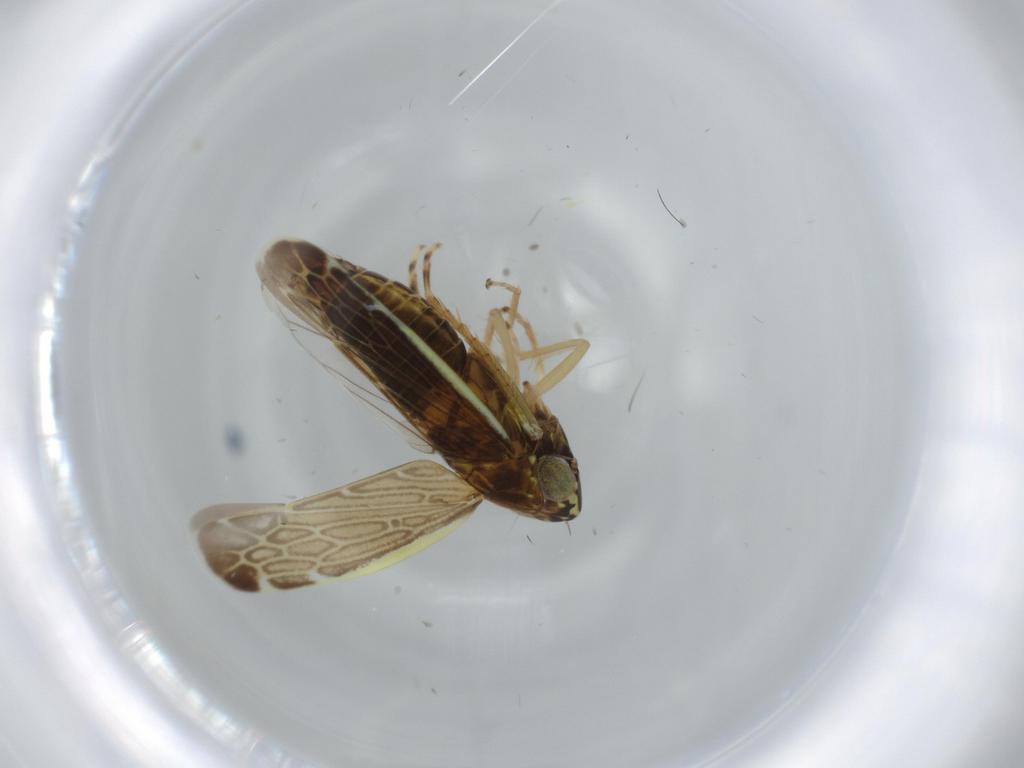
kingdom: Animalia
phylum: Arthropoda
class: Insecta
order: Hemiptera
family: Cicadellidae
